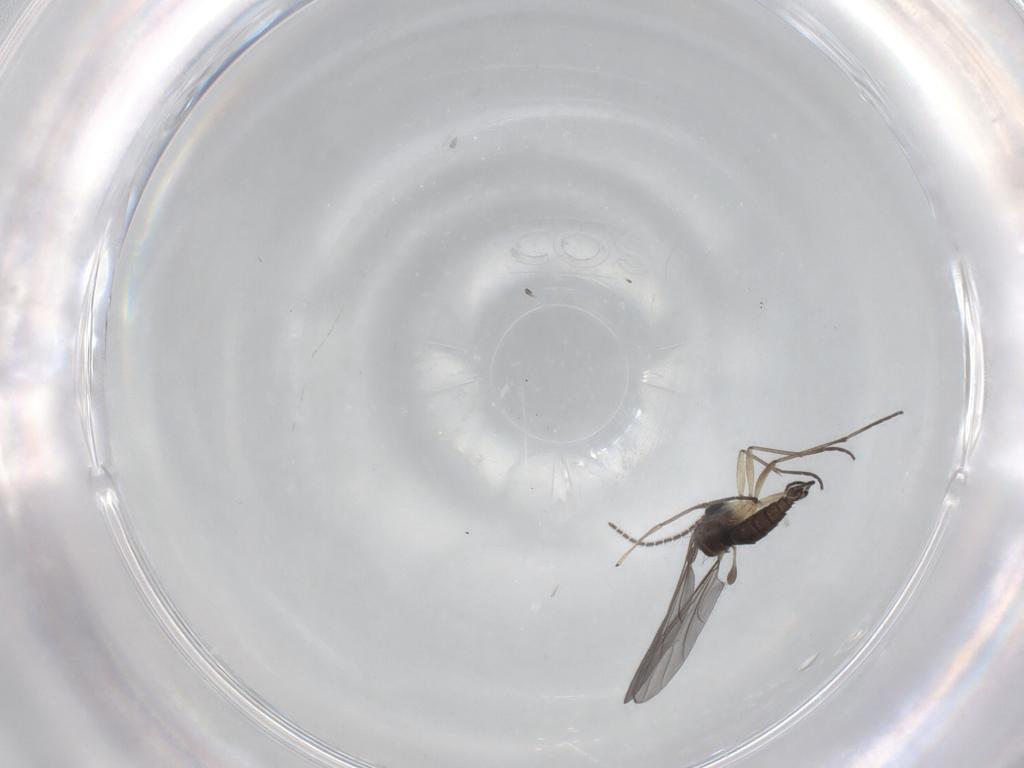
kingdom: Animalia
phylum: Arthropoda
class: Insecta
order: Diptera
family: Sciaridae
